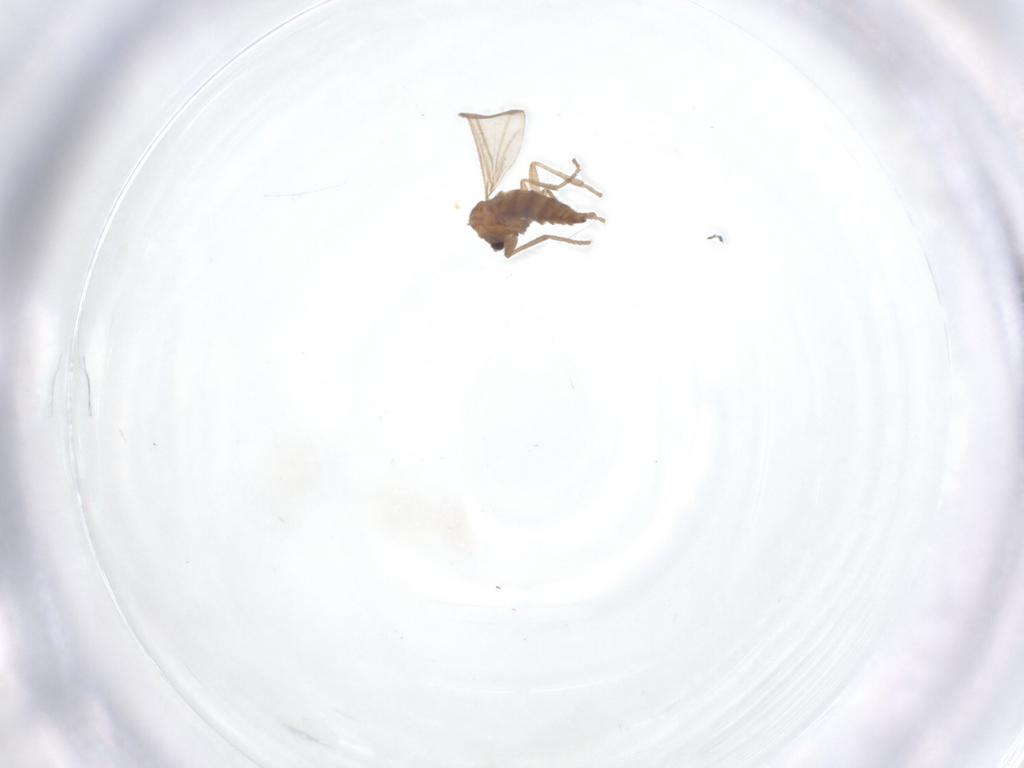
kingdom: Animalia
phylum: Arthropoda
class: Insecta
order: Diptera
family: Sciaridae
